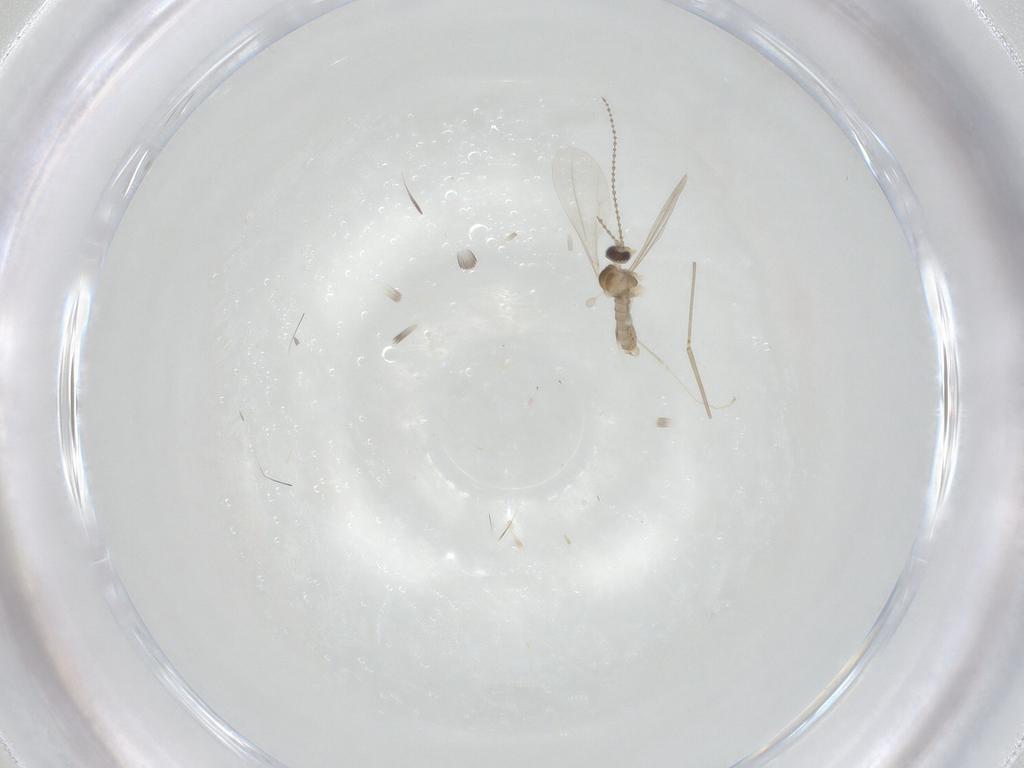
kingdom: Animalia
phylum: Arthropoda
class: Insecta
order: Diptera
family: Cecidomyiidae
